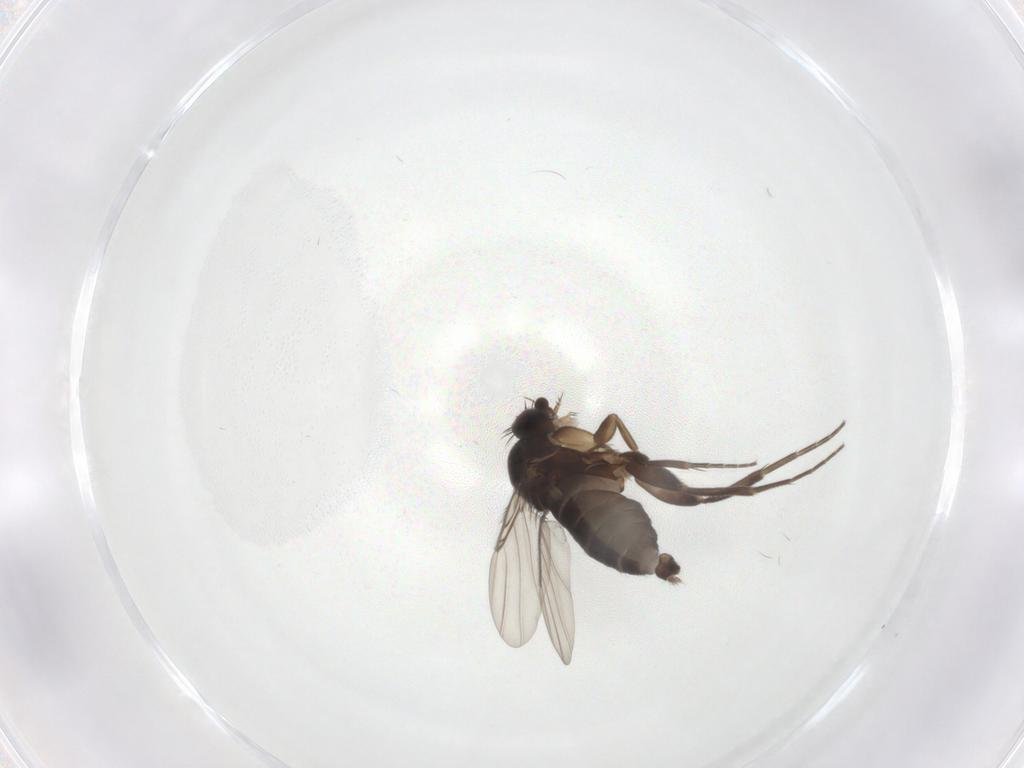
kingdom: Animalia
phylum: Arthropoda
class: Insecta
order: Diptera
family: Phoridae
